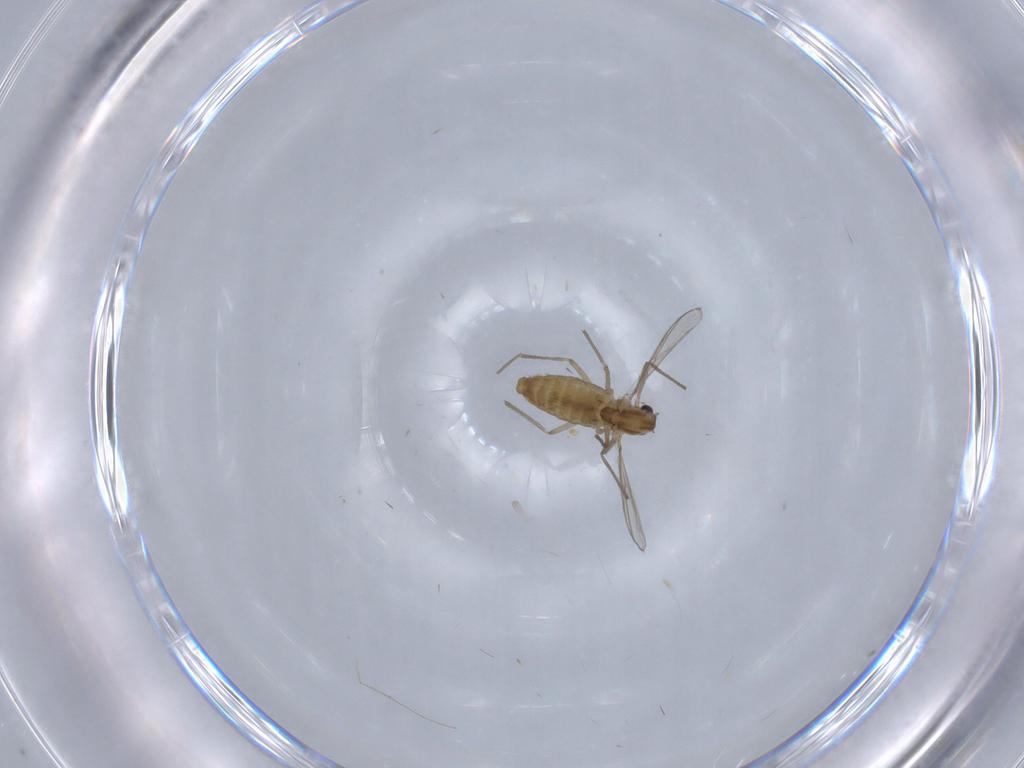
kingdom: Animalia
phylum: Arthropoda
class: Insecta
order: Diptera
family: Chironomidae
